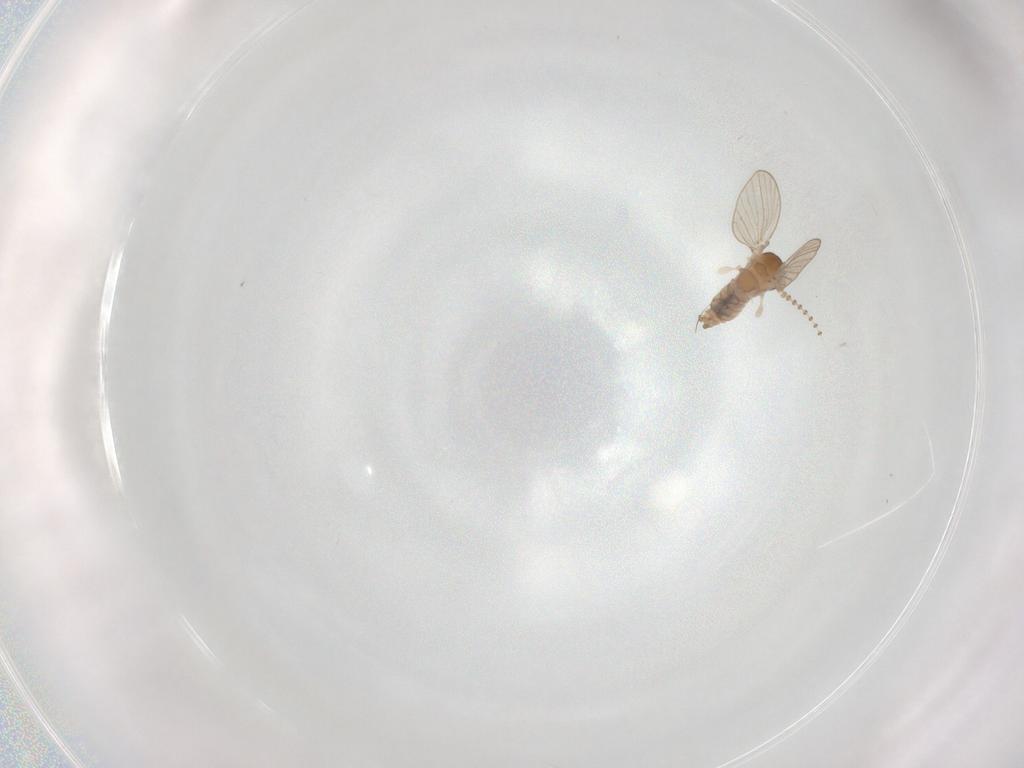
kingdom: Animalia
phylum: Arthropoda
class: Insecta
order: Diptera
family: Psychodidae
